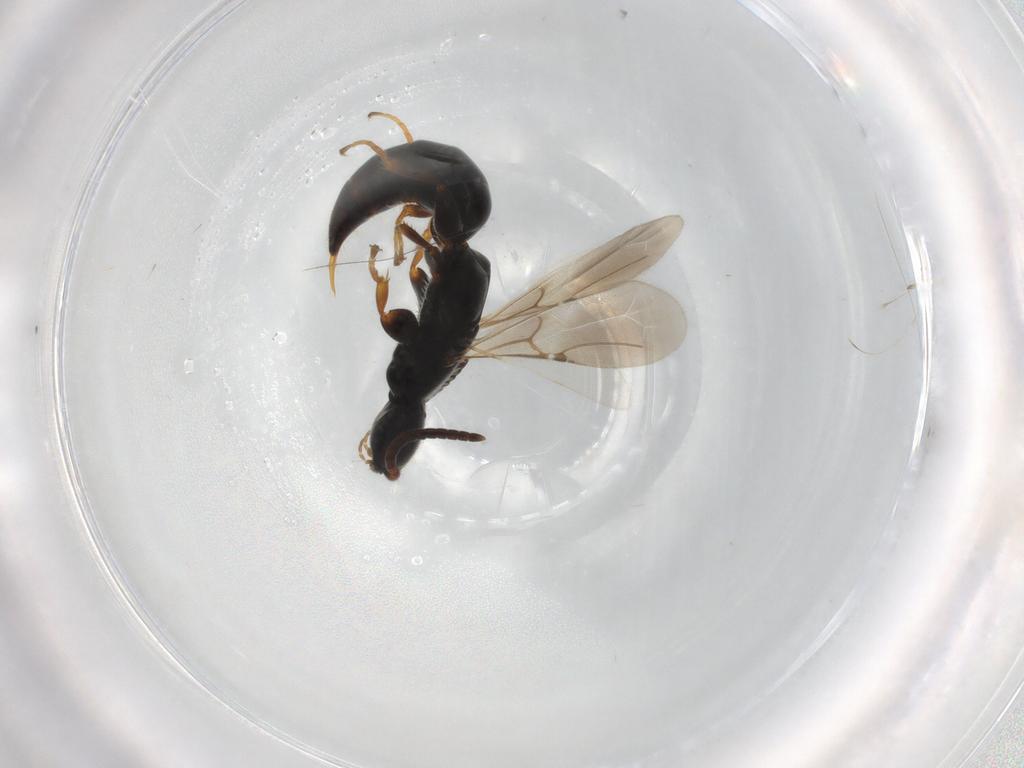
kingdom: Animalia
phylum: Arthropoda
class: Insecta
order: Hymenoptera
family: Bethylidae
